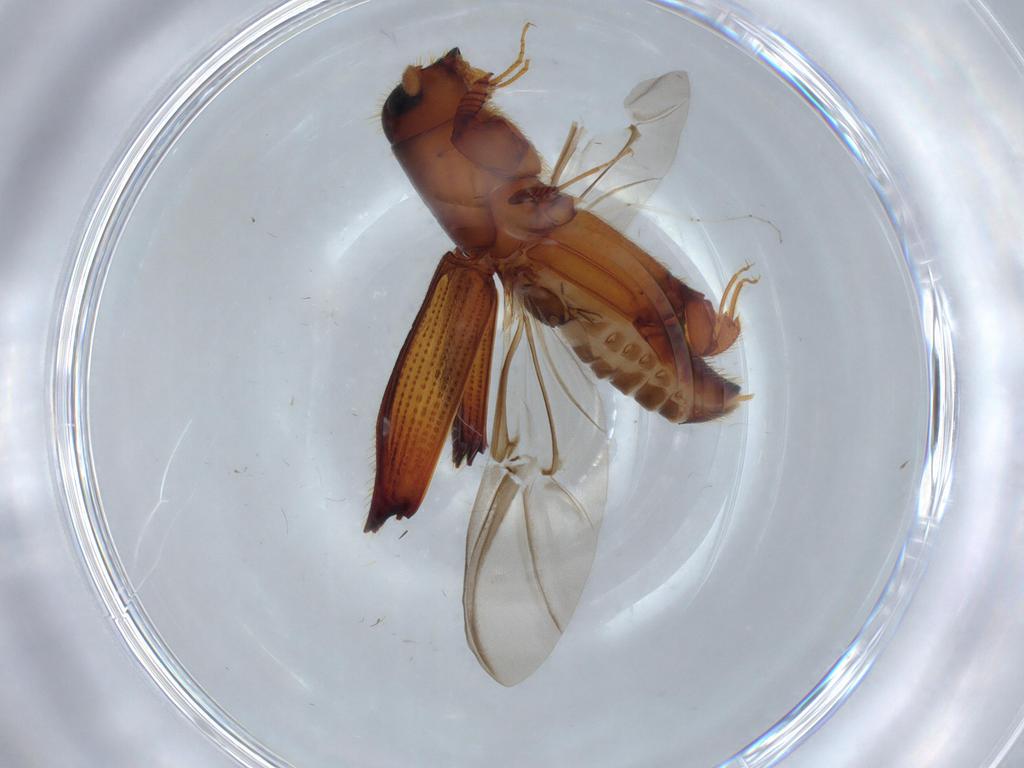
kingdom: Animalia
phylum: Arthropoda
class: Insecta
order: Coleoptera
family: Curculionidae
